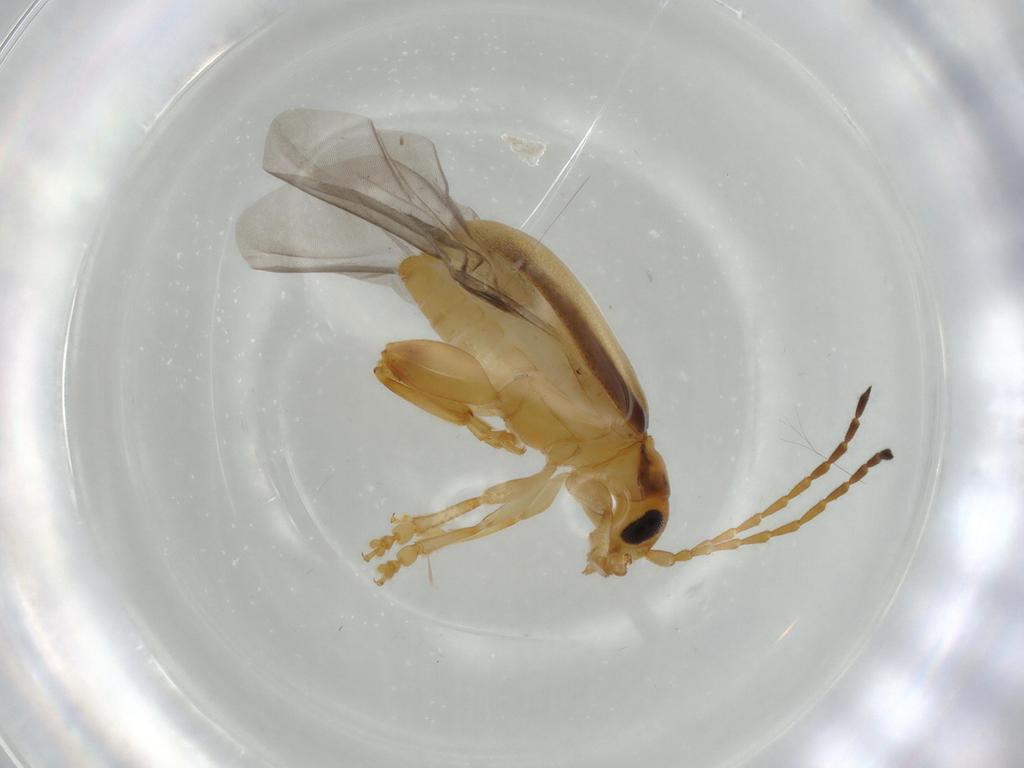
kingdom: Animalia
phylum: Arthropoda
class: Insecta
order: Coleoptera
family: Chrysomelidae
